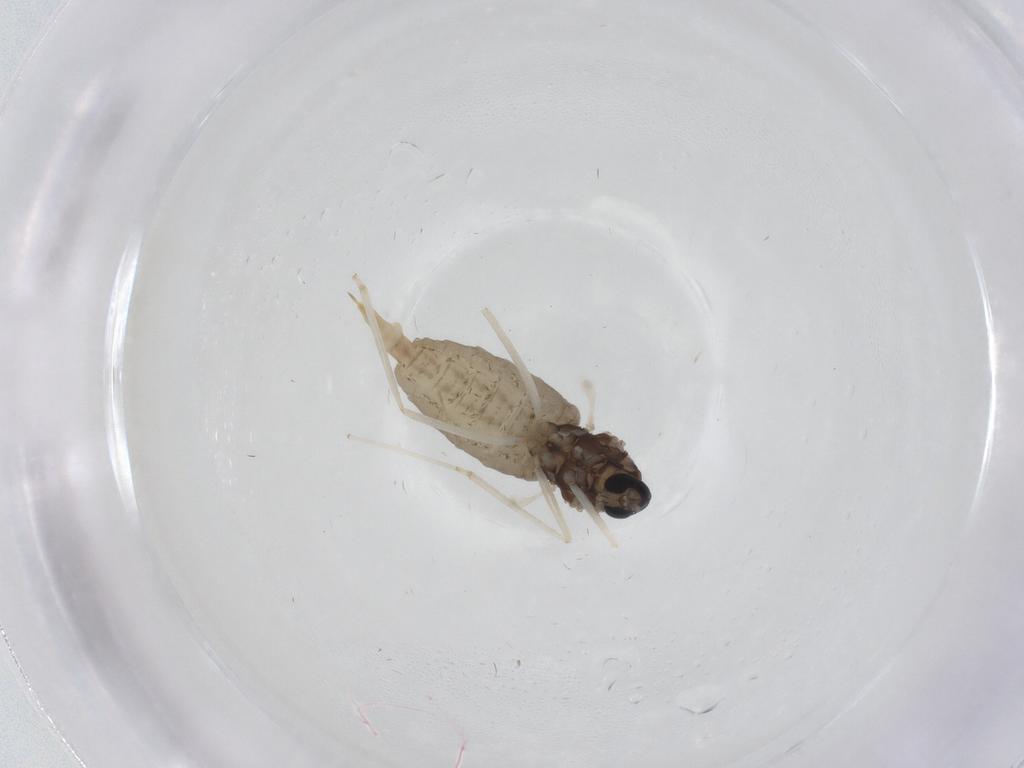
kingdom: Animalia
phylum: Arthropoda
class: Insecta
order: Diptera
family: Cecidomyiidae
